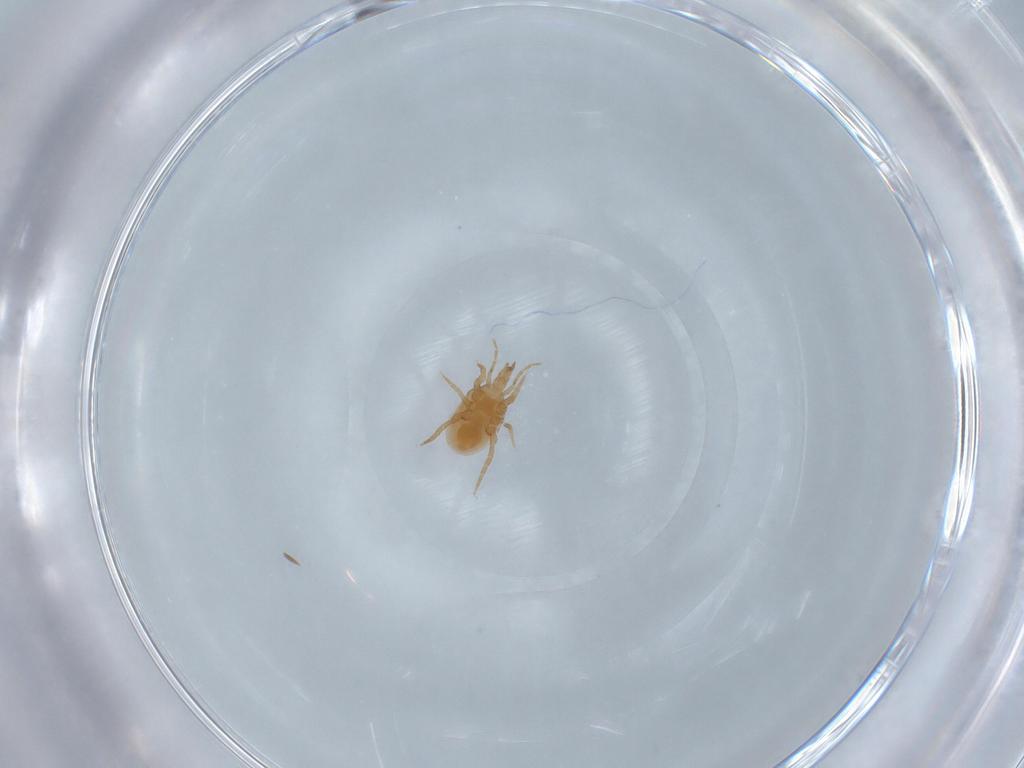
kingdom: Animalia
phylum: Arthropoda
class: Arachnida
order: Mesostigmata
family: Macrochelidae
